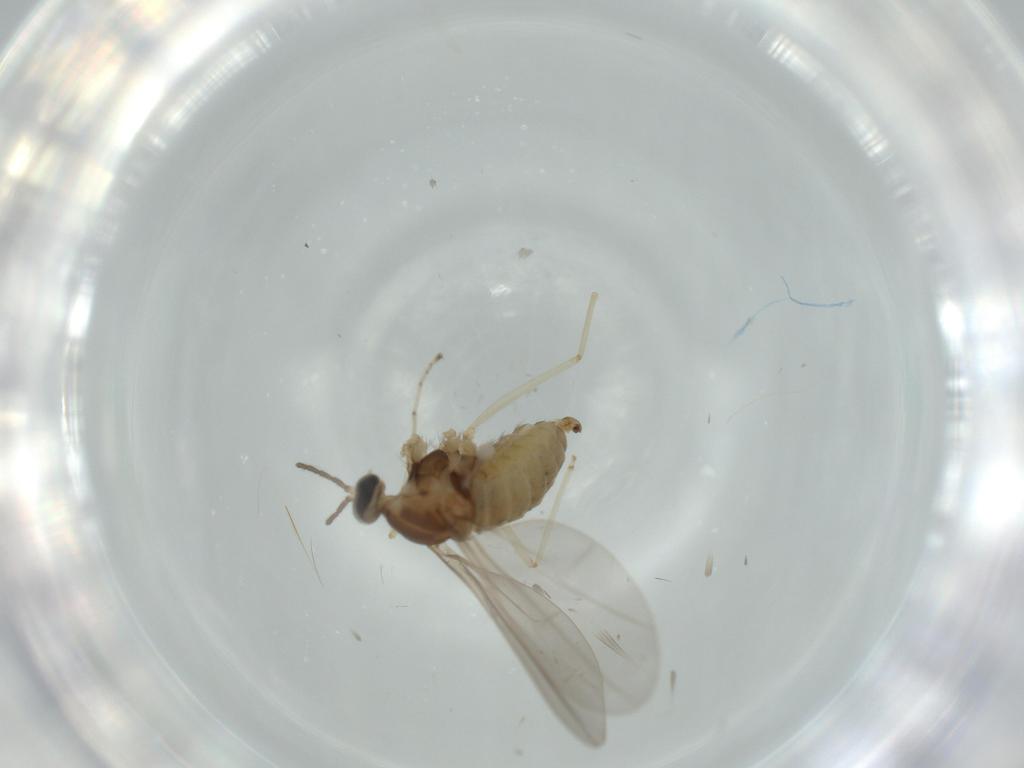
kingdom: Animalia
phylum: Arthropoda
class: Insecta
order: Diptera
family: Cecidomyiidae
